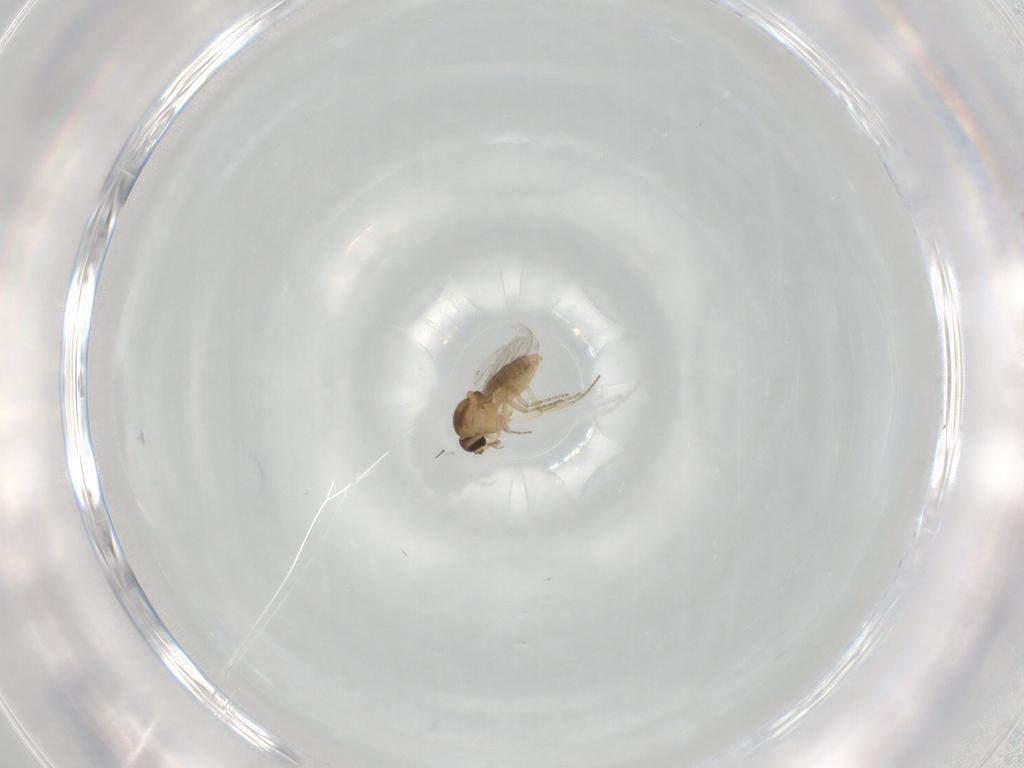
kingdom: Animalia
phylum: Arthropoda
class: Insecta
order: Diptera
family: Ceratopogonidae
